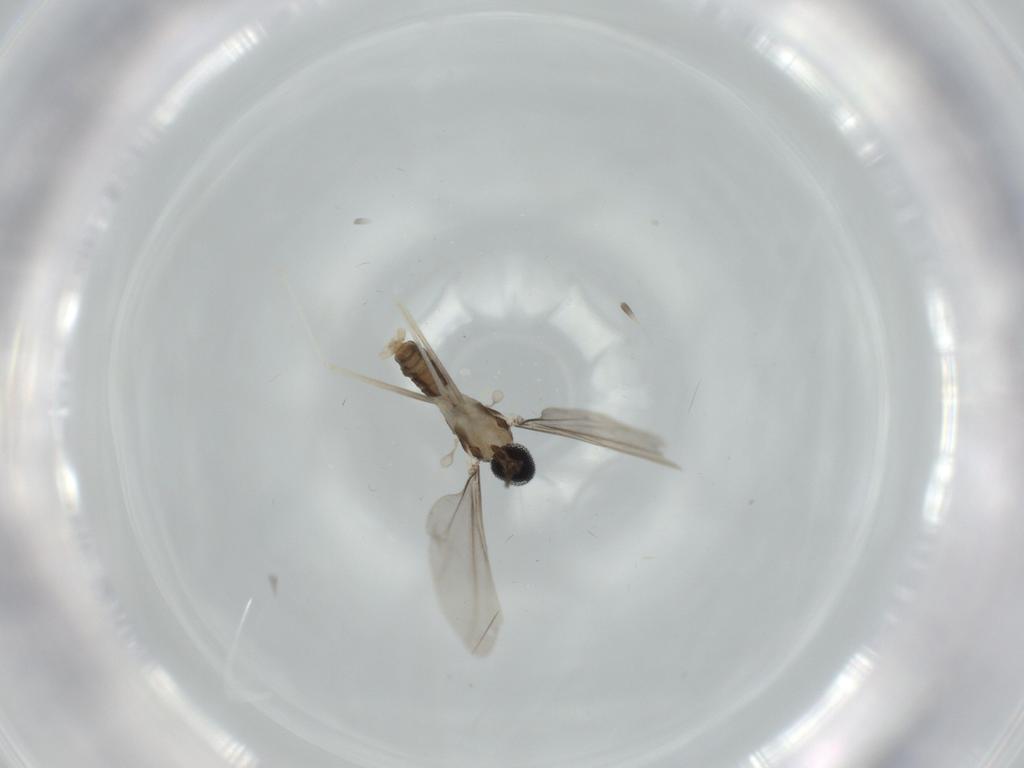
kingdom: Animalia
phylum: Arthropoda
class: Insecta
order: Diptera
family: Cecidomyiidae
